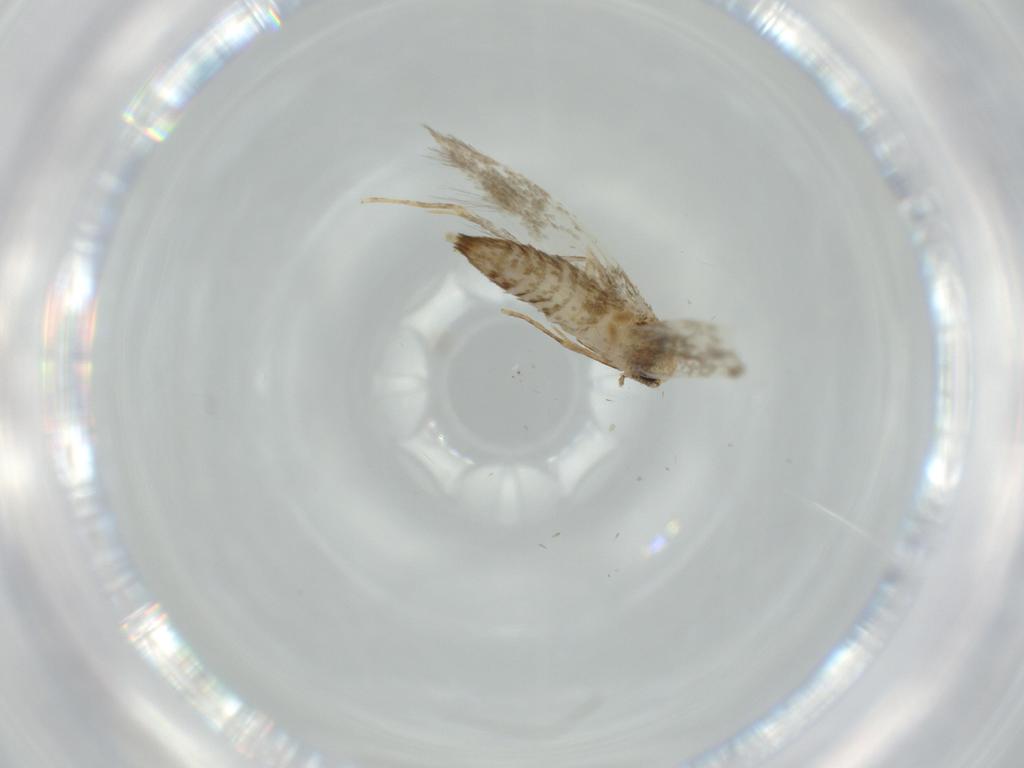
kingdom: Animalia
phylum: Arthropoda
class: Insecta
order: Lepidoptera
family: Tineidae
